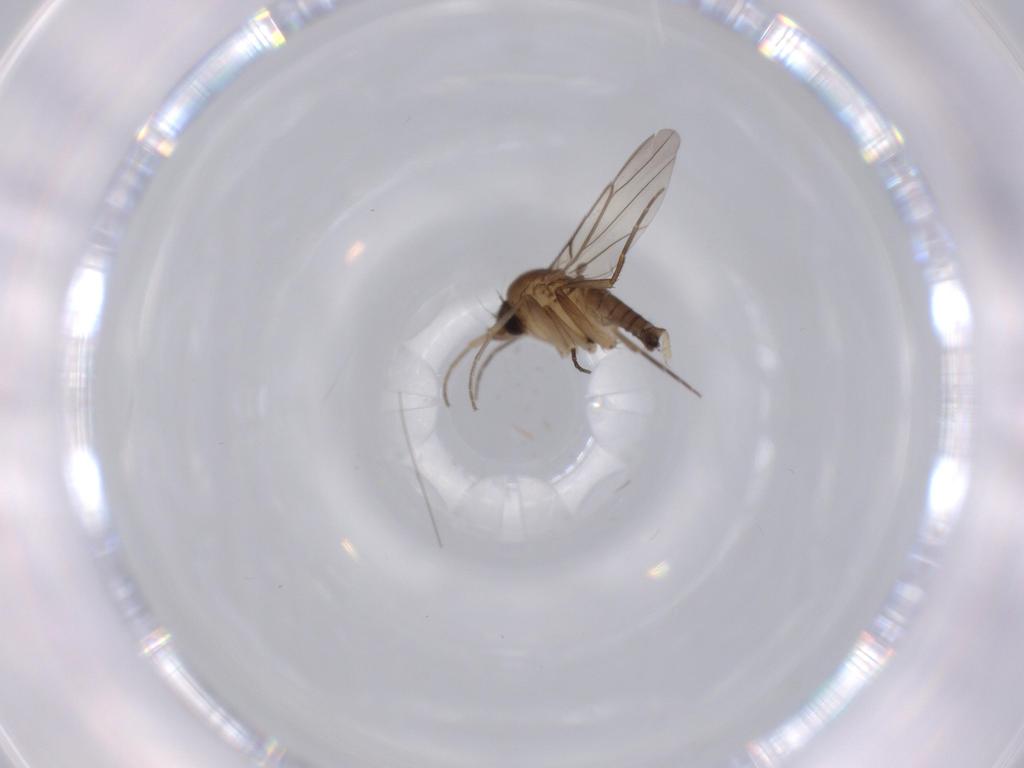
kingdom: Animalia
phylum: Arthropoda
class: Insecta
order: Diptera
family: Phoridae
